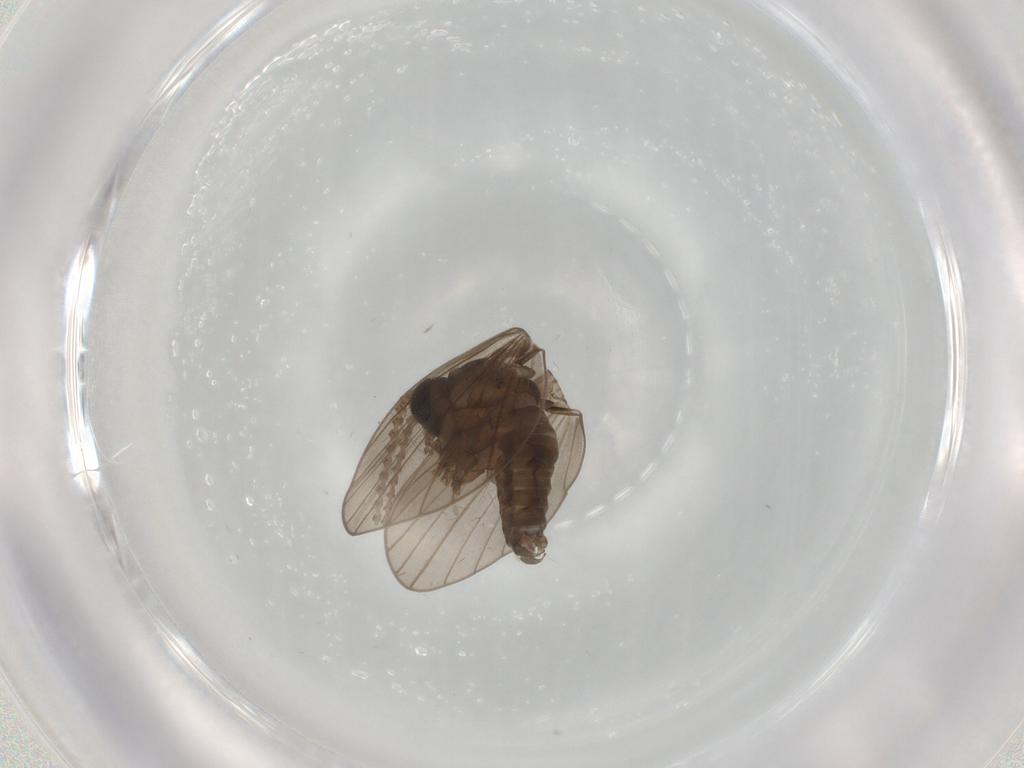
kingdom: Animalia
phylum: Arthropoda
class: Insecta
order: Diptera
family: Psychodidae
